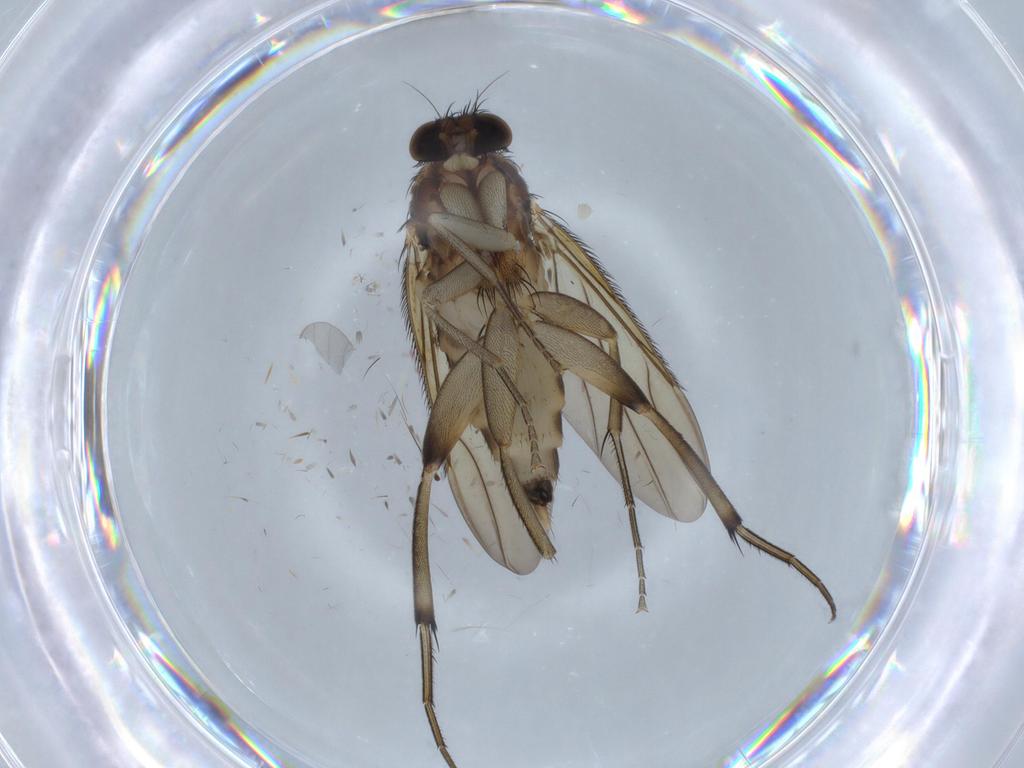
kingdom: Animalia
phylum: Arthropoda
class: Insecta
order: Diptera
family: Phoridae
